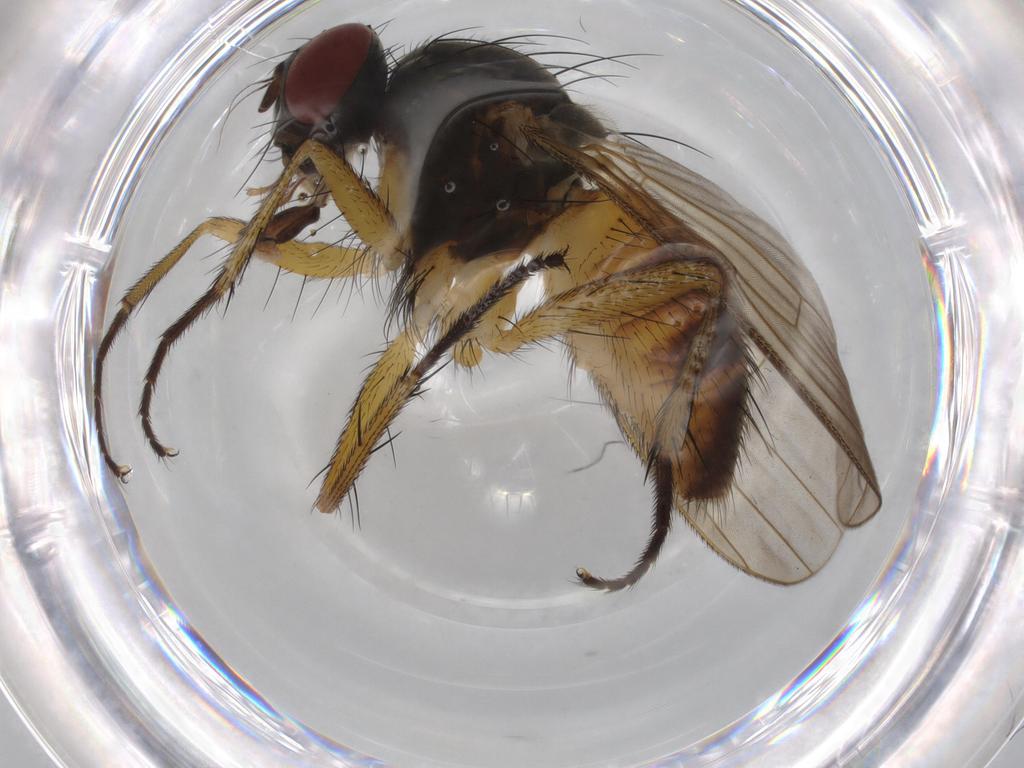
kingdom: Animalia
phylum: Arthropoda
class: Insecta
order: Diptera
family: Muscidae
